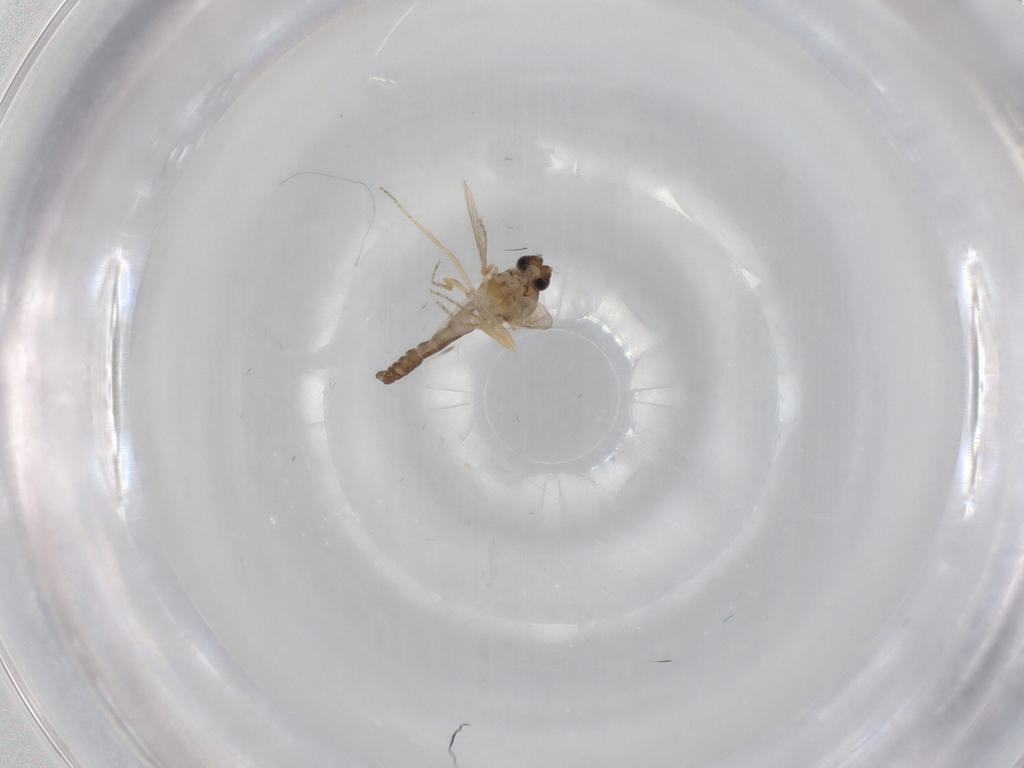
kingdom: Animalia
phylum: Arthropoda
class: Insecta
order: Diptera
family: Ceratopogonidae
